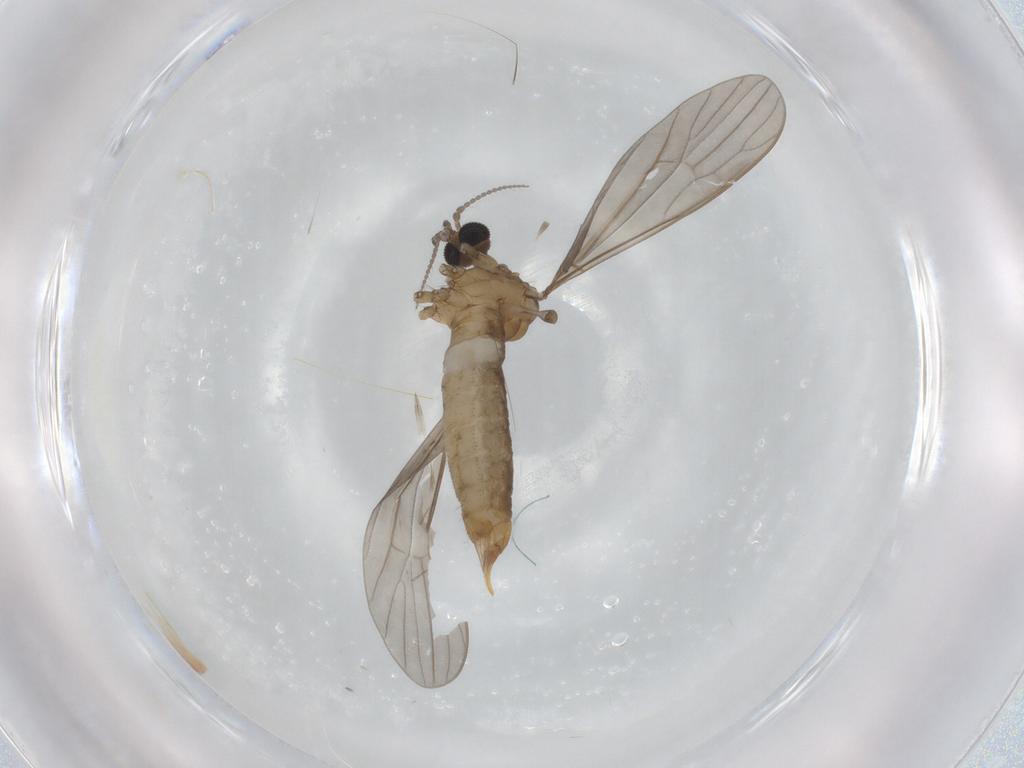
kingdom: Animalia
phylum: Arthropoda
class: Insecta
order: Diptera
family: Limoniidae
